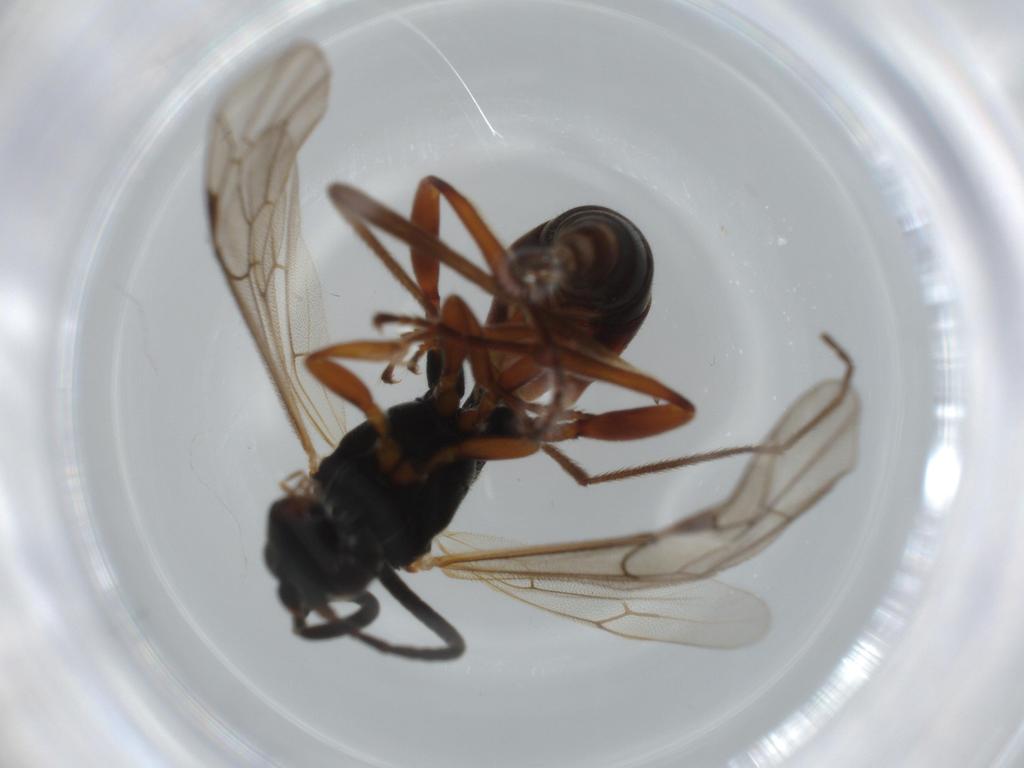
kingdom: Animalia
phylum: Arthropoda
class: Insecta
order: Hymenoptera
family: Ichneumonidae
